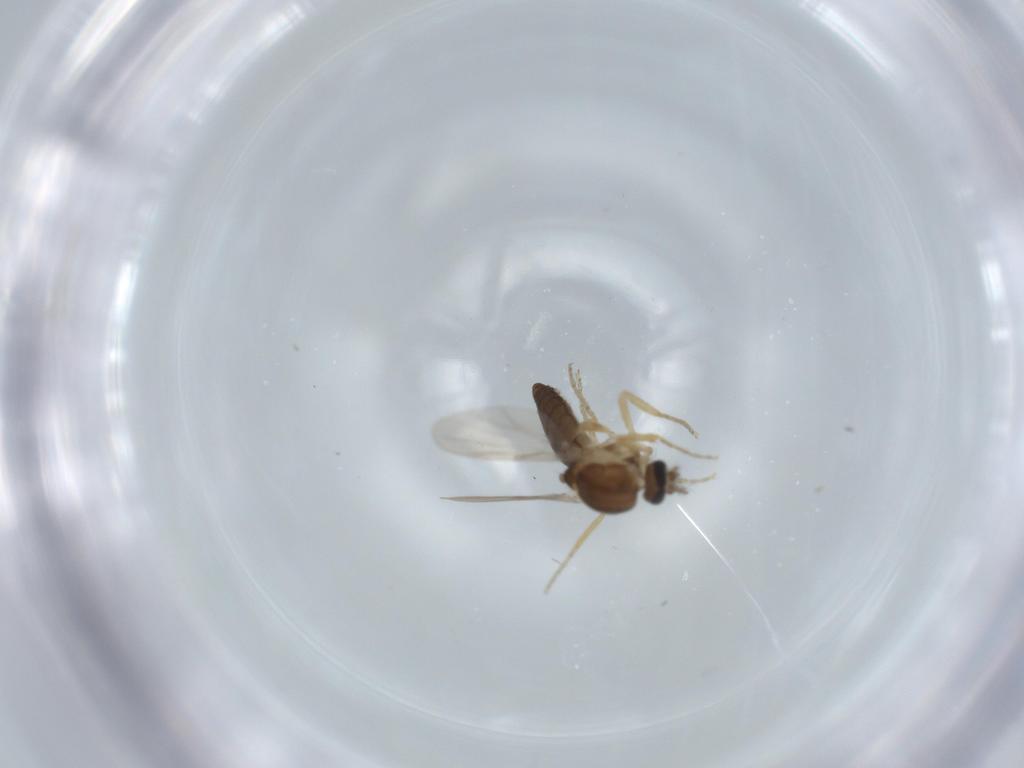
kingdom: Animalia
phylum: Arthropoda
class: Insecta
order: Diptera
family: Ceratopogonidae
